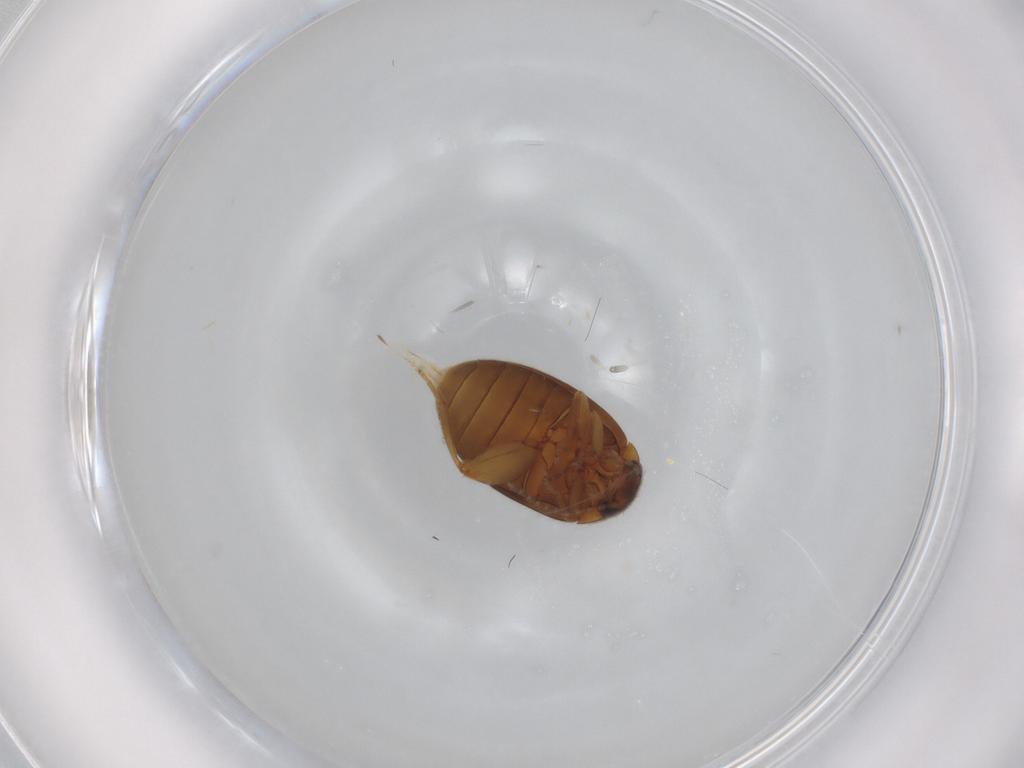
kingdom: Animalia
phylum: Arthropoda
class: Insecta
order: Coleoptera
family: Scirtidae
